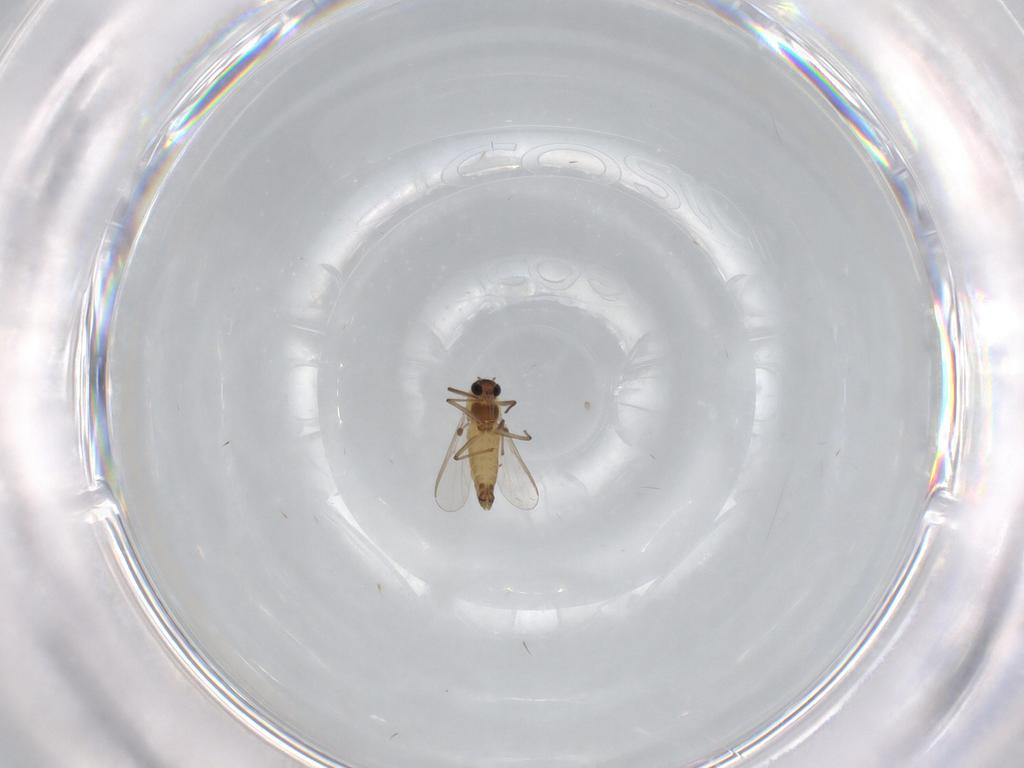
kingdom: Animalia
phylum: Arthropoda
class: Insecta
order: Diptera
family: Chironomidae
